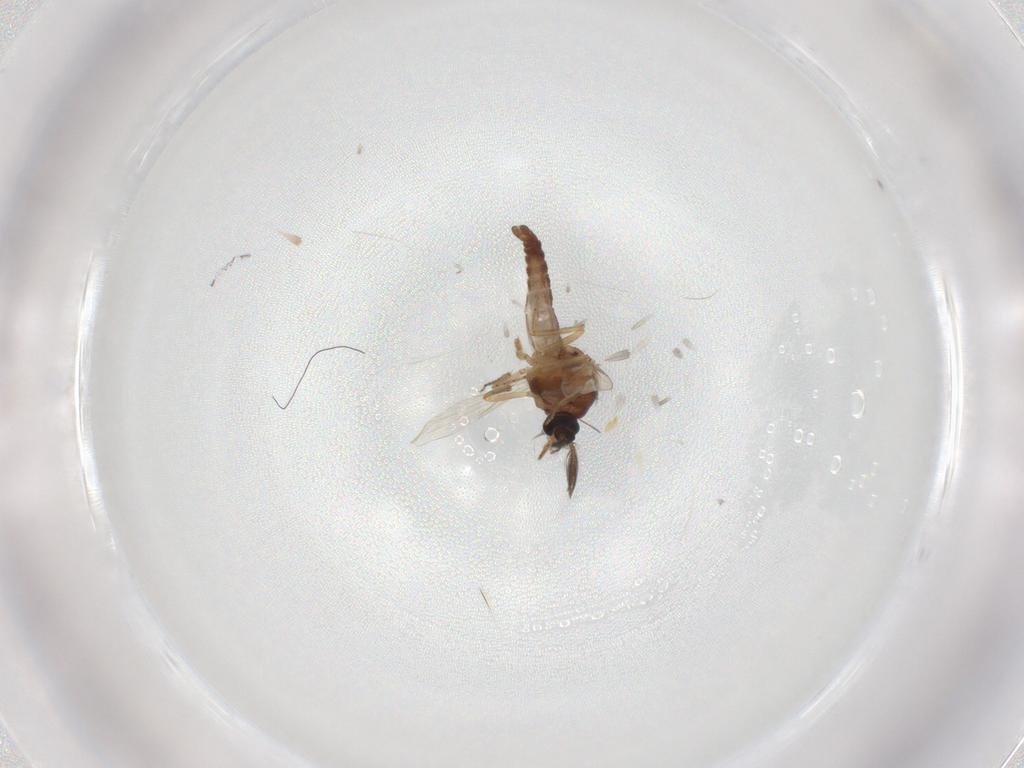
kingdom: Animalia
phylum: Arthropoda
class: Insecta
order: Diptera
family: Ceratopogonidae
